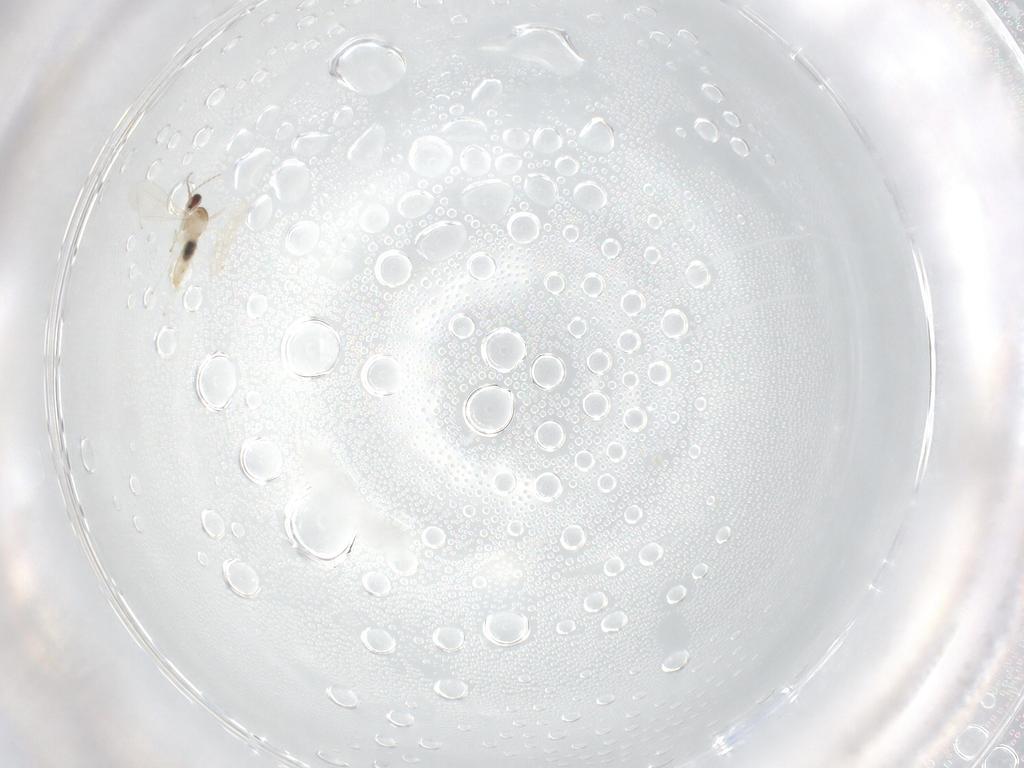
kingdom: Animalia
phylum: Arthropoda
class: Insecta
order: Diptera
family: Cecidomyiidae
